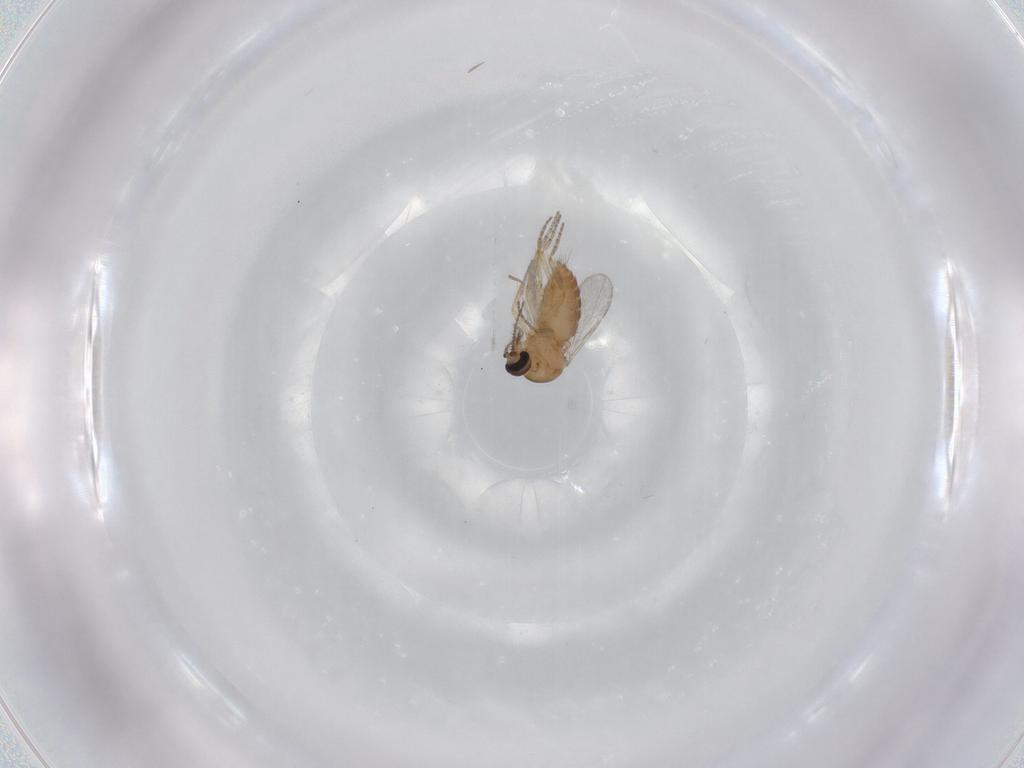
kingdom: Animalia
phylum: Arthropoda
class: Insecta
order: Diptera
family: Ceratopogonidae
